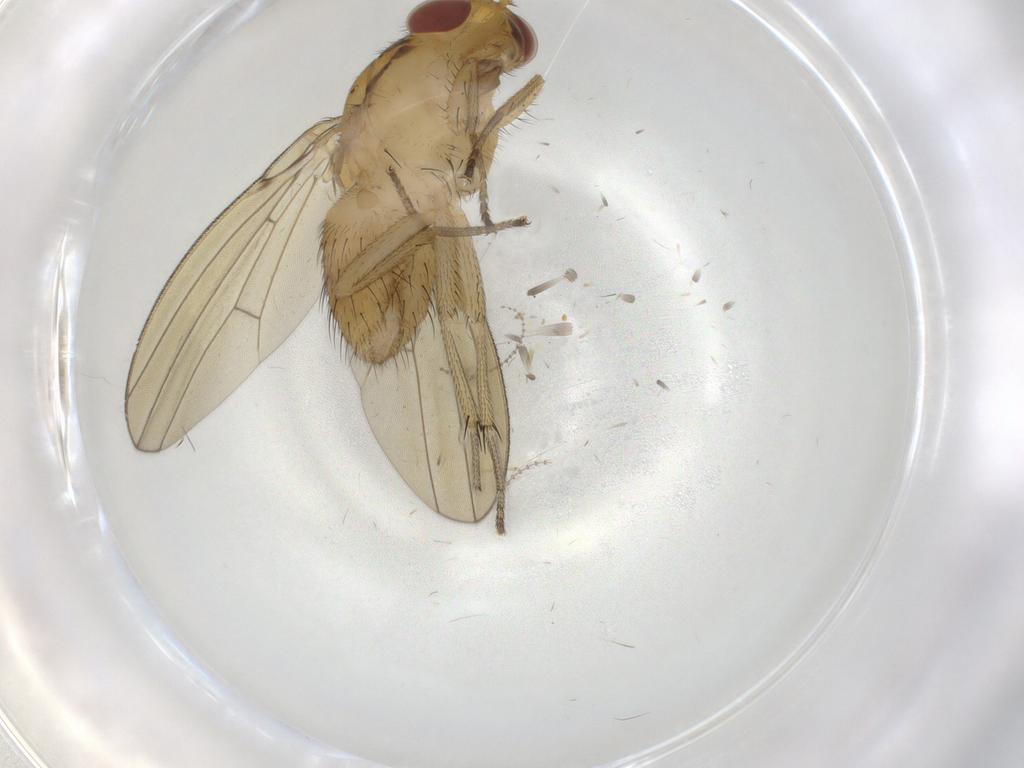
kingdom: Animalia
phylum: Arthropoda
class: Insecta
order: Diptera
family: Lauxaniidae
